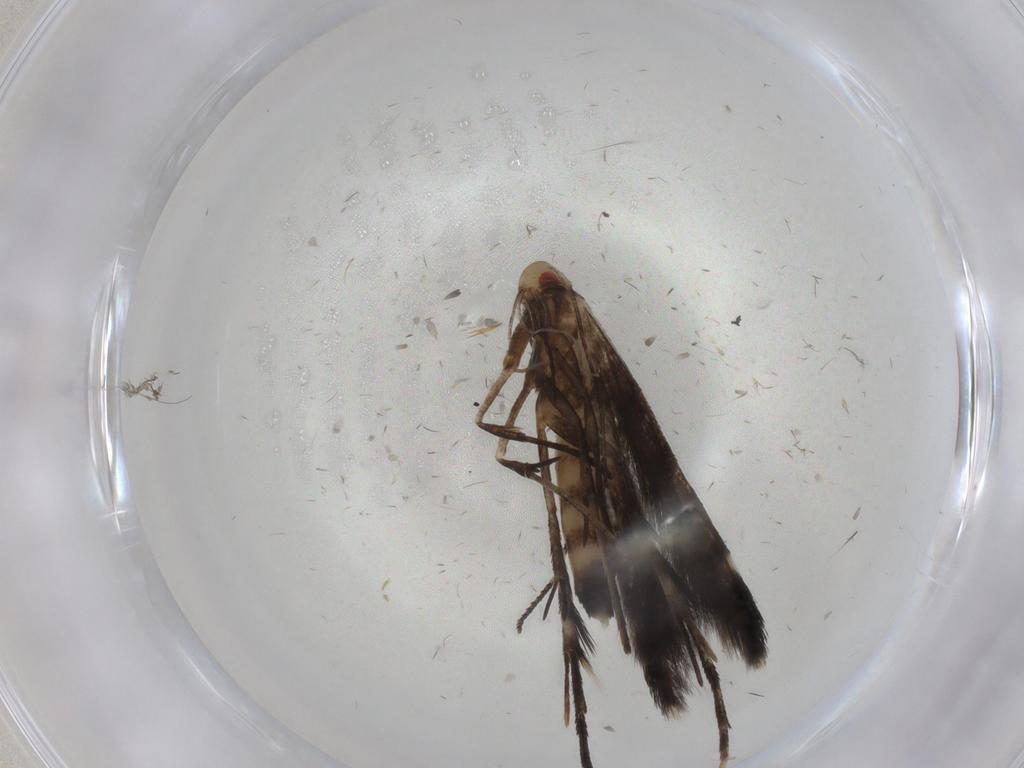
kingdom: Animalia
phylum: Arthropoda
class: Insecta
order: Lepidoptera
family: Cosmopterigidae
